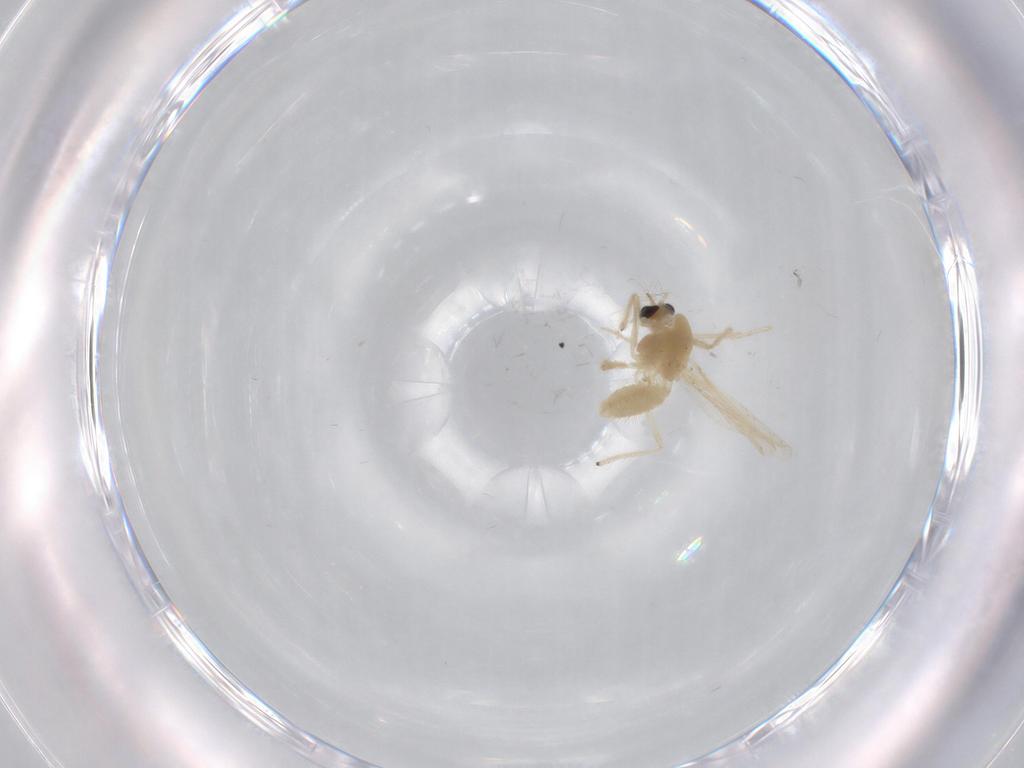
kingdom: Animalia
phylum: Arthropoda
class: Insecta
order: Diptera
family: Chironomidae
